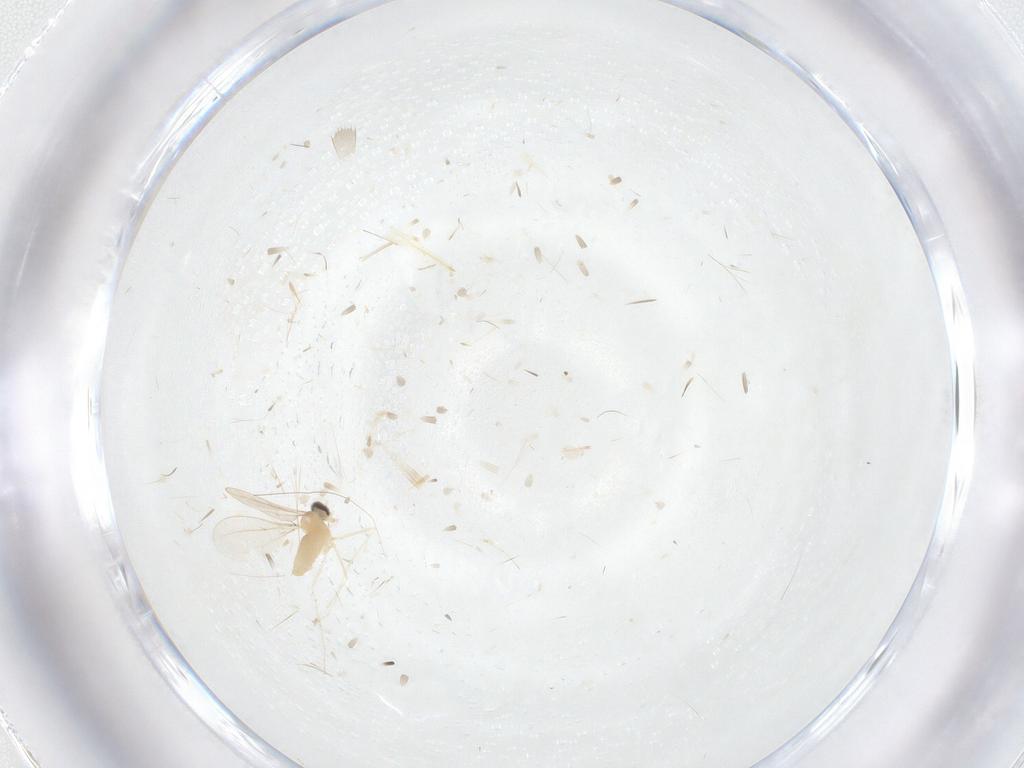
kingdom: Animalia
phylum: Arthropoda
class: Insecta
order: Diptera
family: Cecidomyiidae
